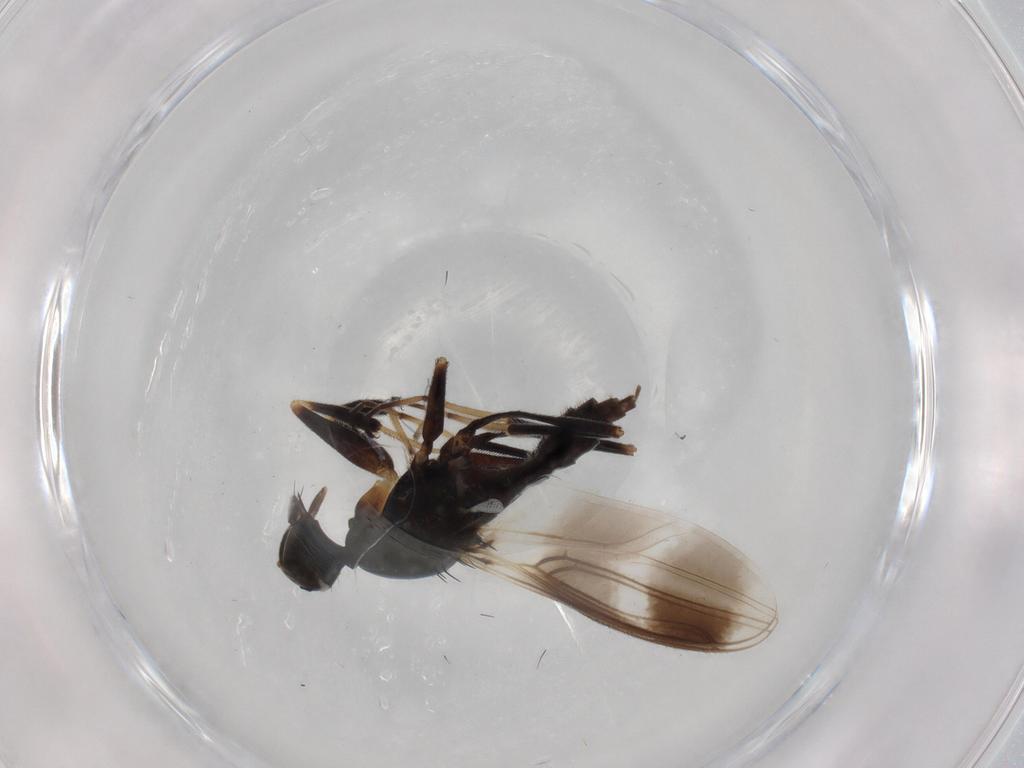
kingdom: Animalia
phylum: Arthropoda
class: Insecta
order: Diptera
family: Hybotidae
